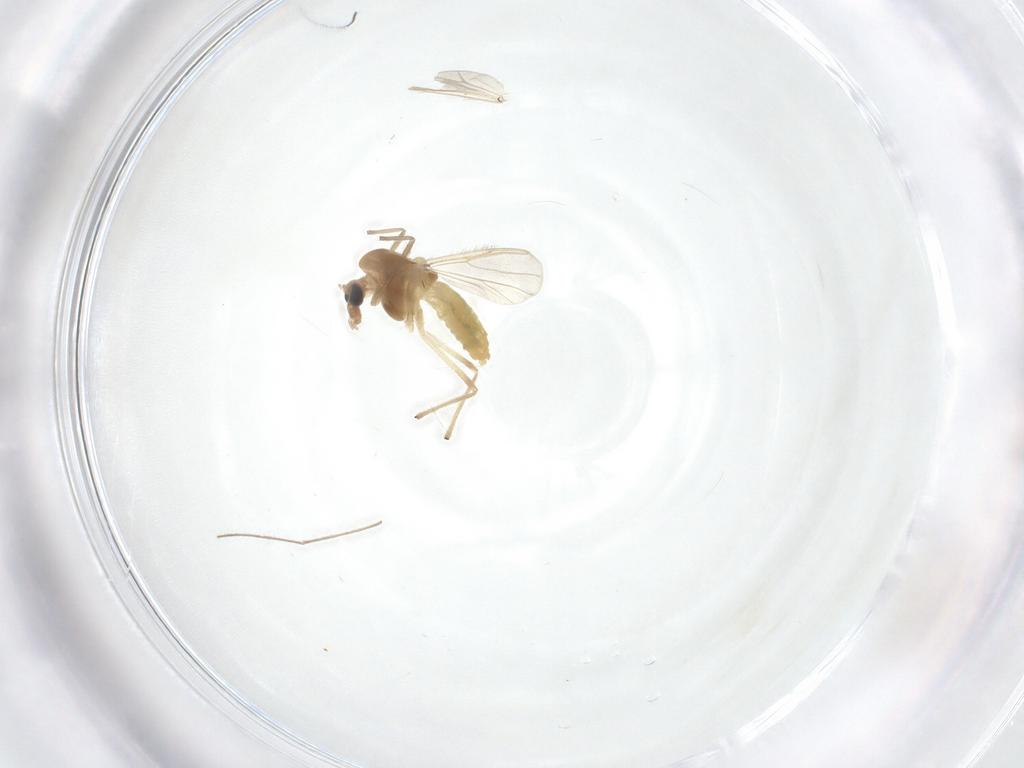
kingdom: Animalia
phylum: Arthropoda
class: Insecta
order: Diptera
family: Chironomidae
